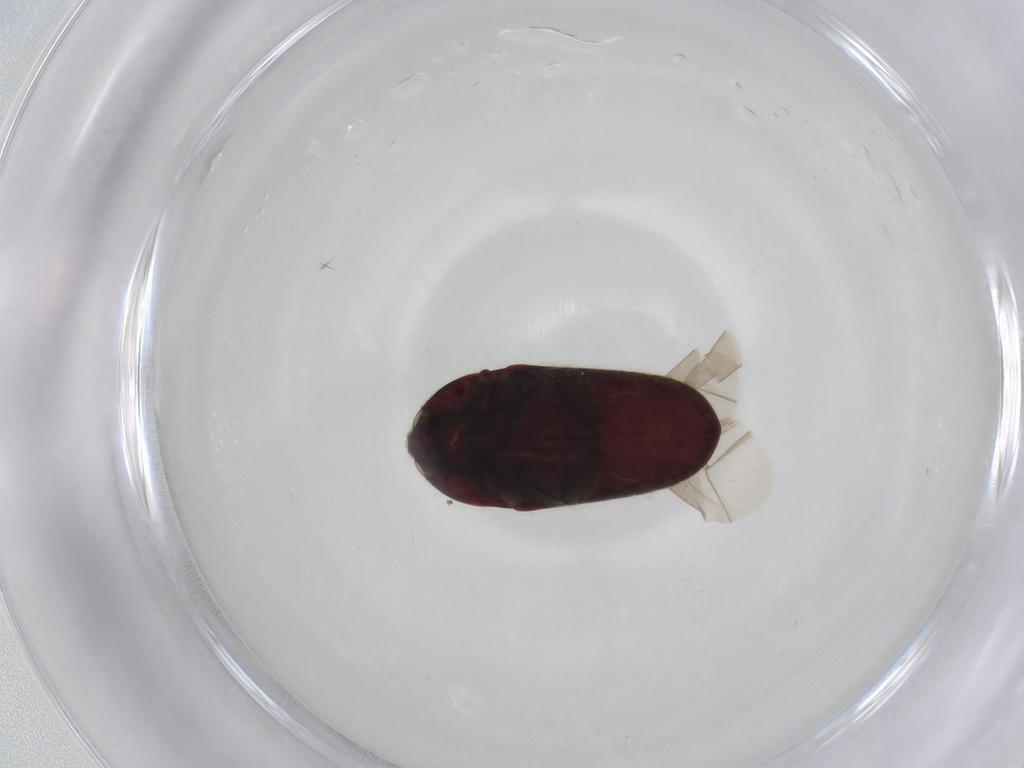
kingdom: Animalia
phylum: Arthropoda
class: Insecta
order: Coleoptera
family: Throscidae
